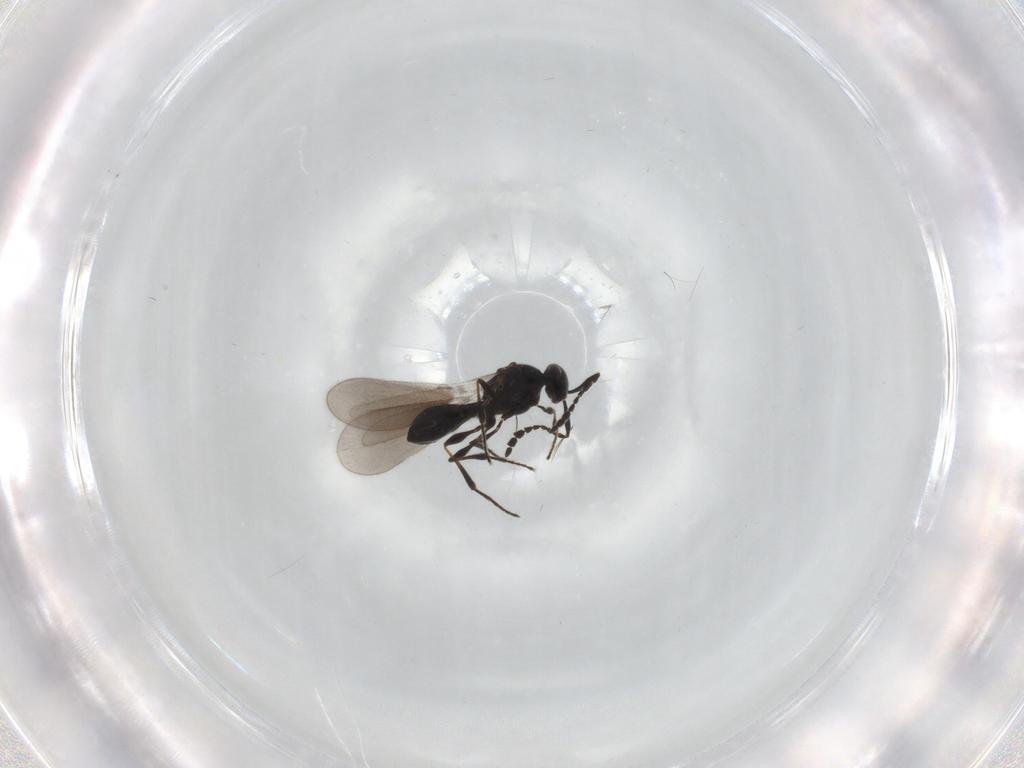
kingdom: Animalia
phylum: Arthropoda
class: Insecta
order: Hymenoptera
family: Platygastridae
